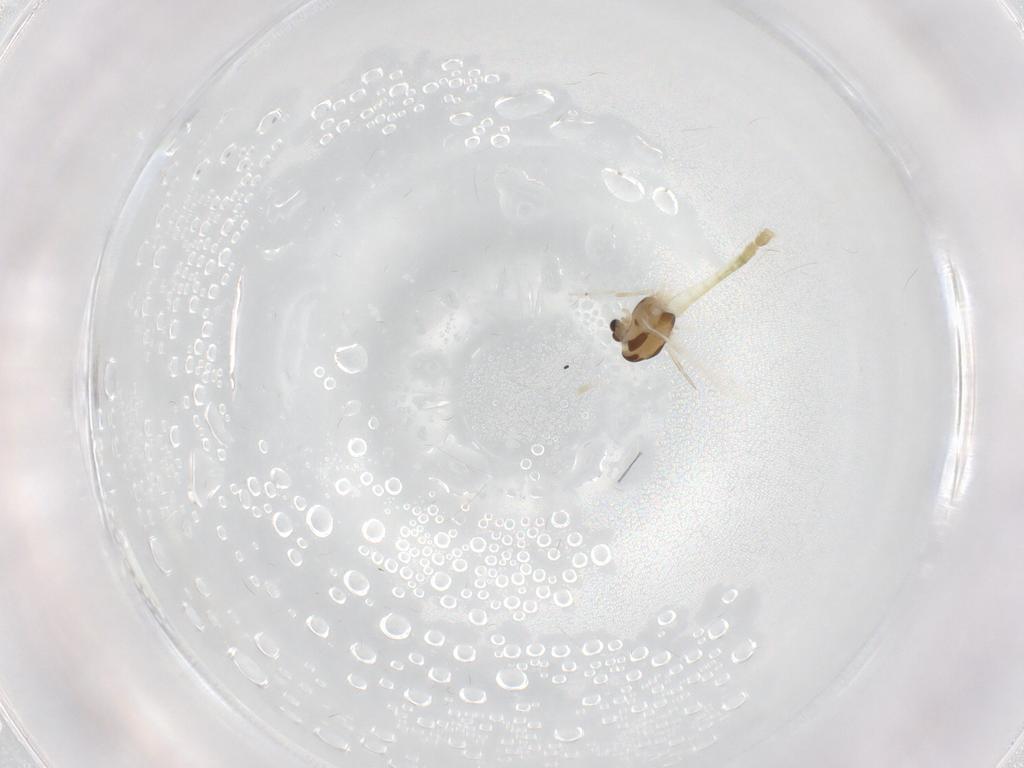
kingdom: Animalia
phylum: Arthropoda
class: Insecta
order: Diptera
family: Chironomidae
